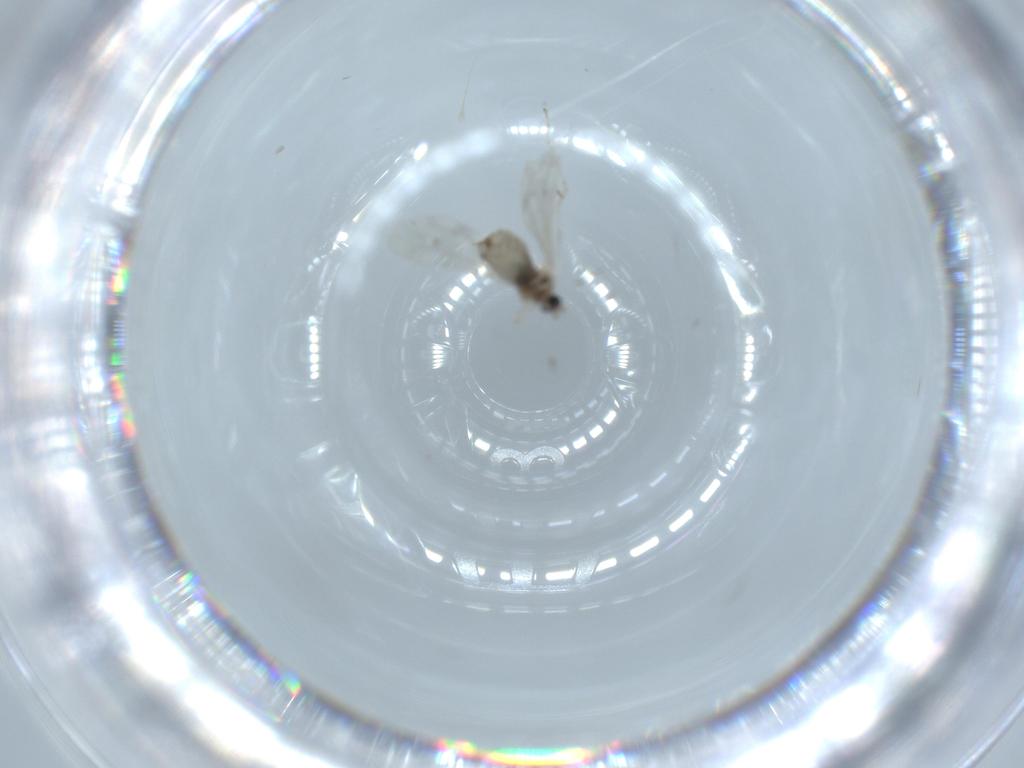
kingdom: Animalia
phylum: Arthropoda
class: Insecta
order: Diptera
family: Cecidomyiidae
